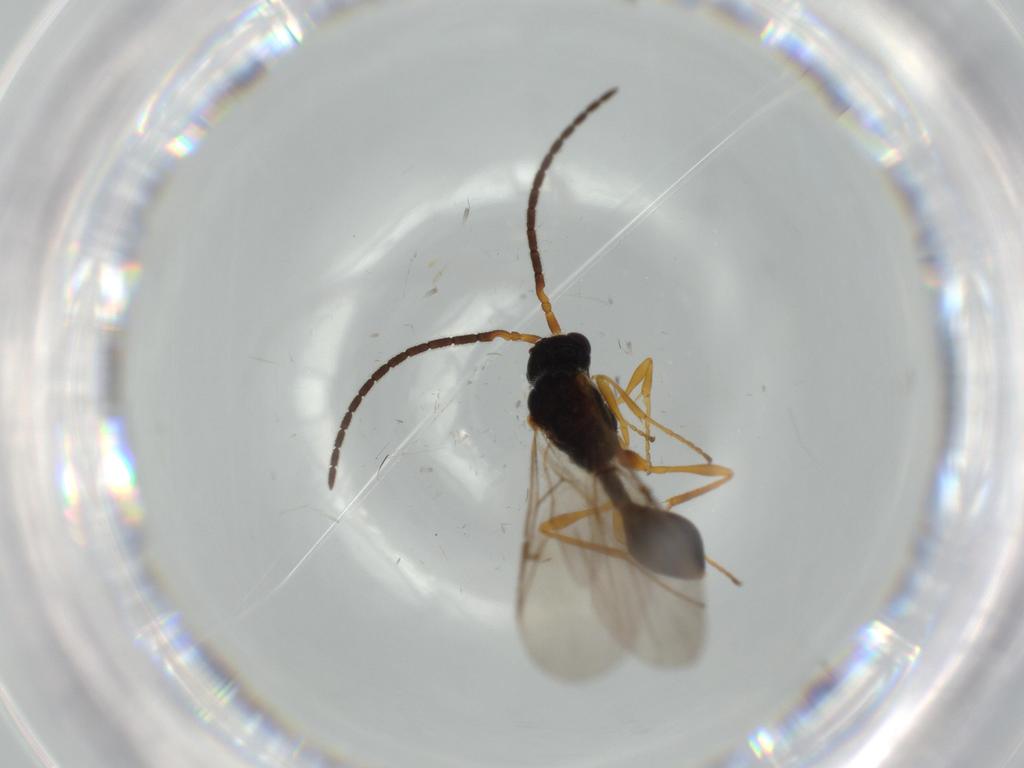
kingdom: Animalia
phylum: Arthropoda
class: Insecta
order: Hymenoptera
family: Diapriidae
